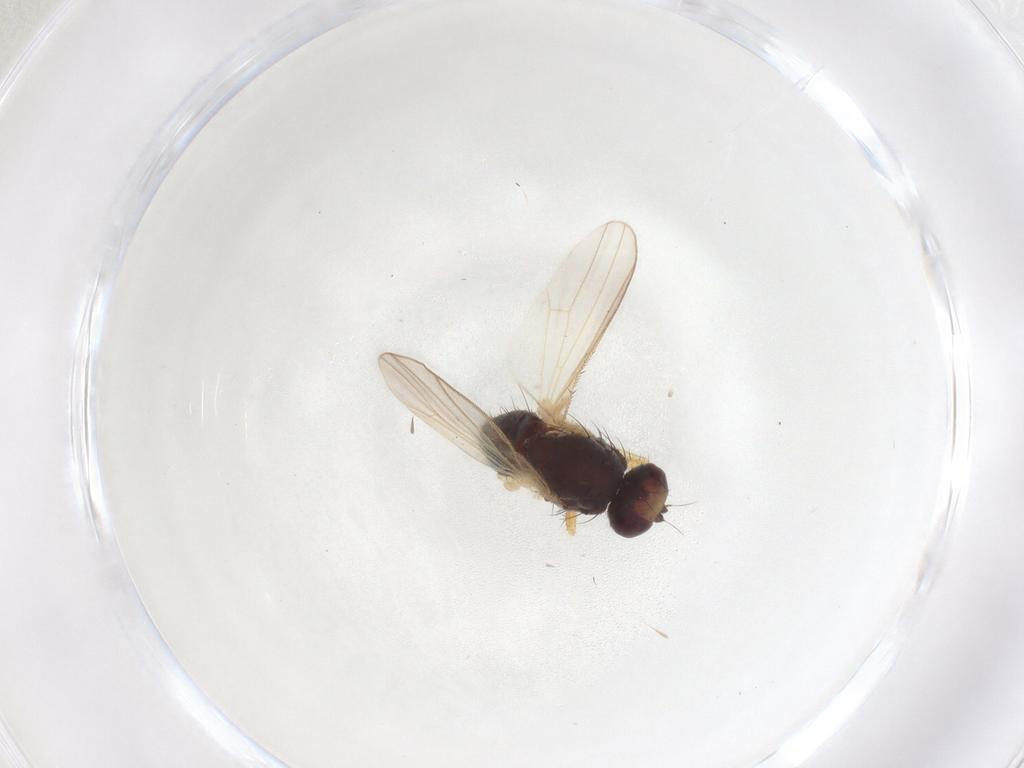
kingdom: Animalia
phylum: Arthropoda
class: Insecta
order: Diptera
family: Heleomyzidae
